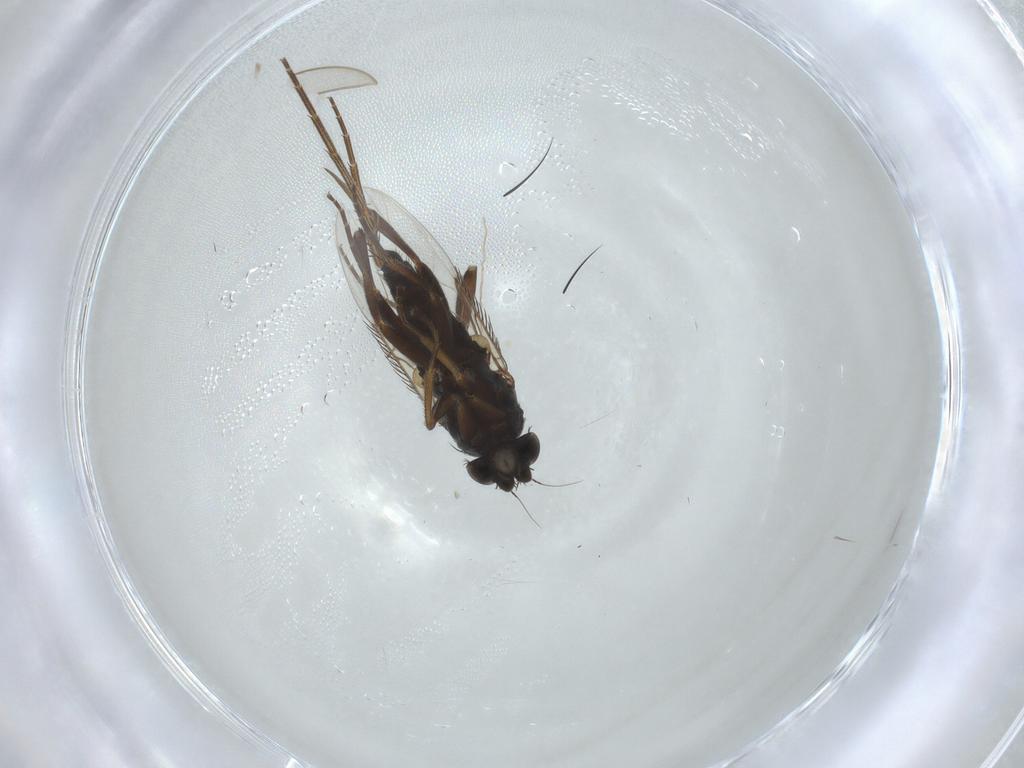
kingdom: Animalia
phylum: Arthropoda
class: Insecta
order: Diptera
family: Phoridae
